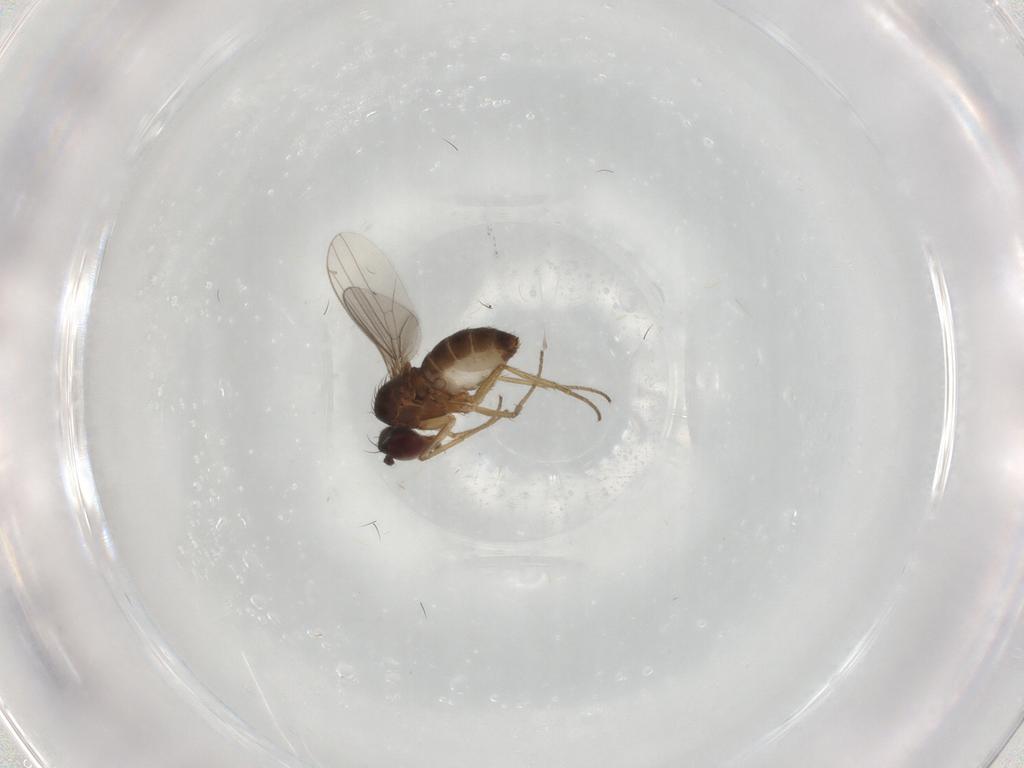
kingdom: Animalia
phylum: Arthropoda
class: Insecta
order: Diptera
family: Dolichopodidae
